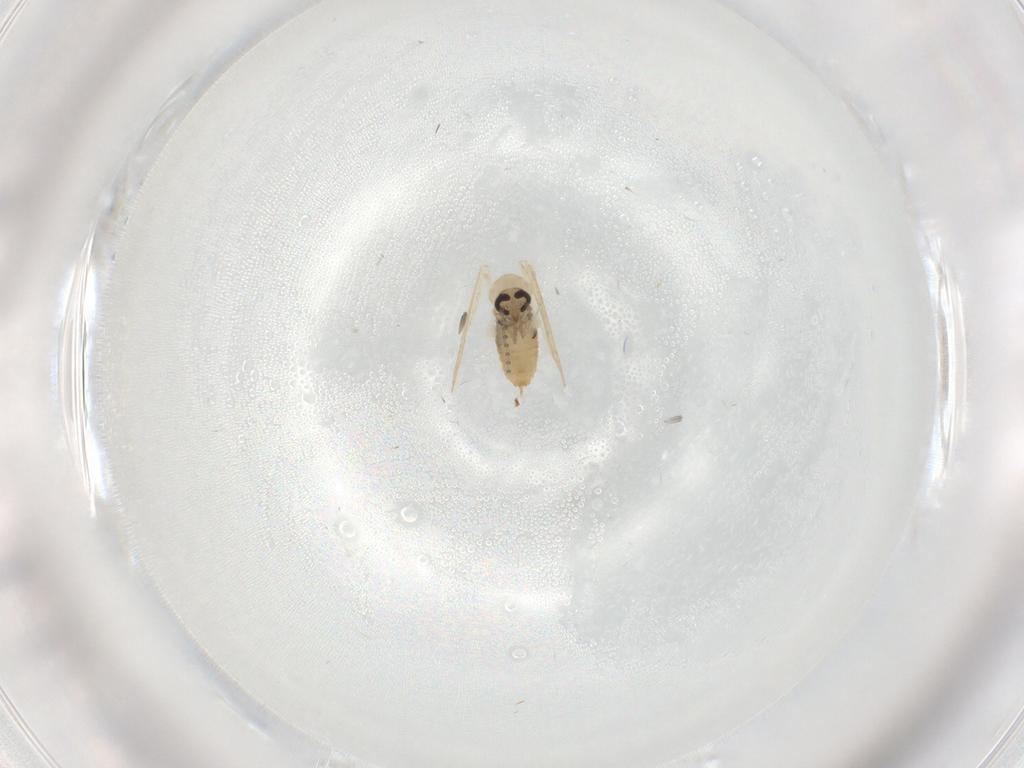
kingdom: Animalia
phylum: Arthropoda
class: Insecta
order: Diptera
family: Psychodidae
